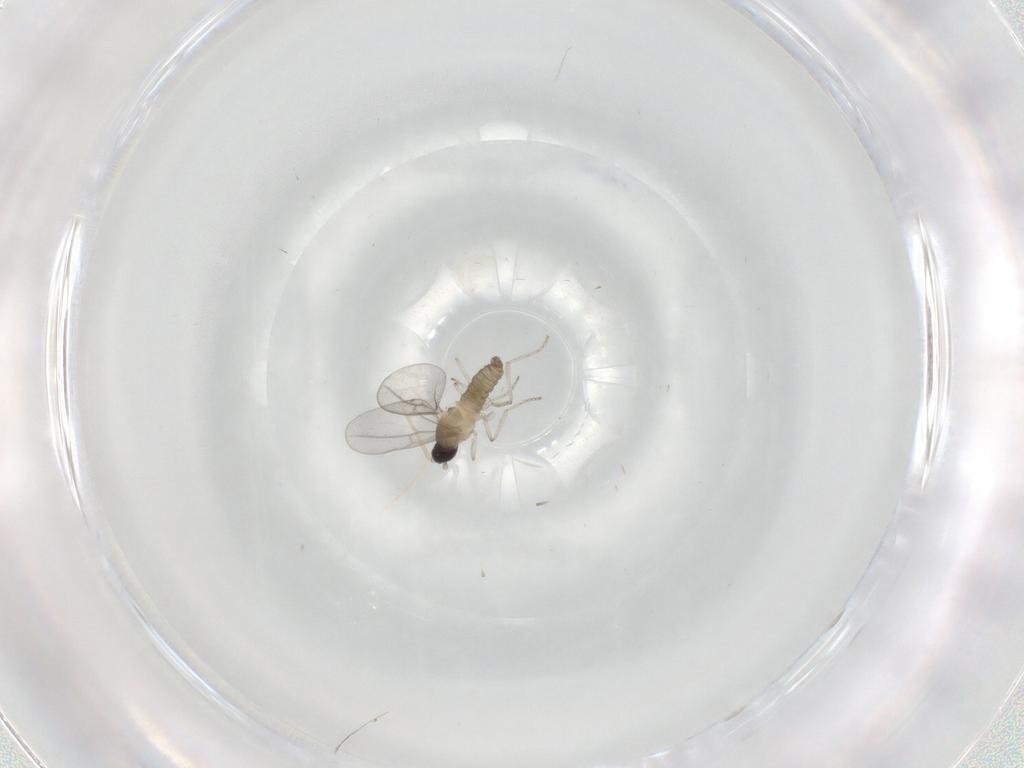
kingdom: Animalia
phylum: Arthropoda
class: Insecta
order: Diptera
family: Cecidomyiidae
